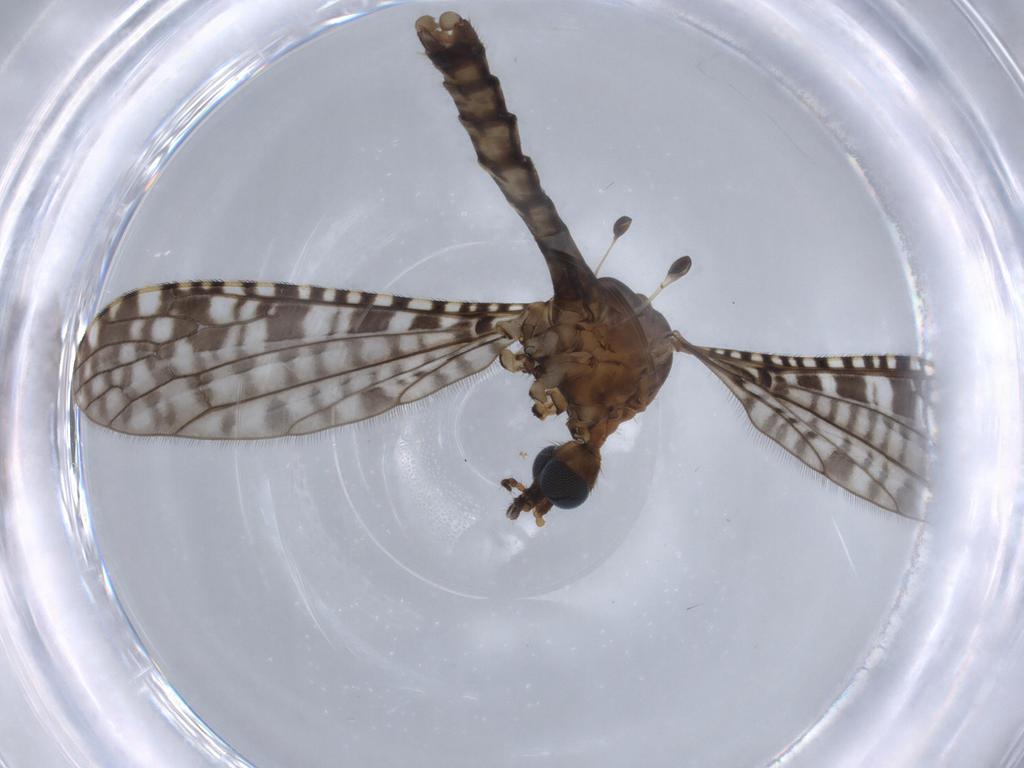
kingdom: Animalia
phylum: Arthropoda
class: Insecta
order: Diptera
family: Limoniidae
